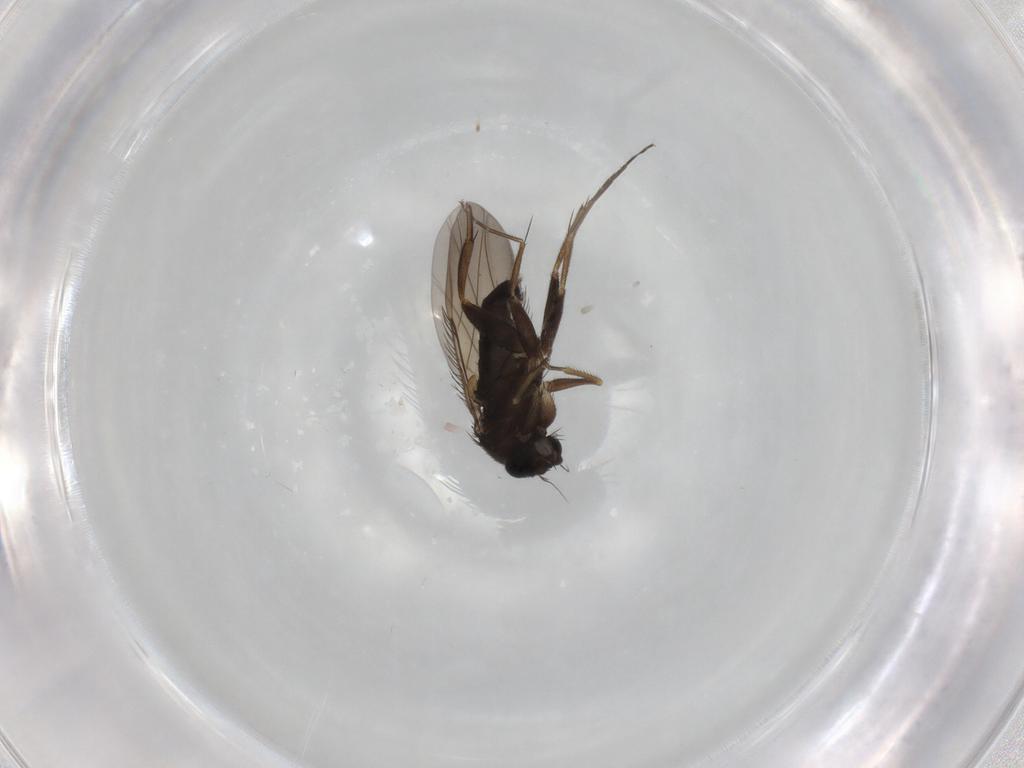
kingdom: Animalia
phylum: Arthropoda
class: Insecta
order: Diptera
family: Phoridae
